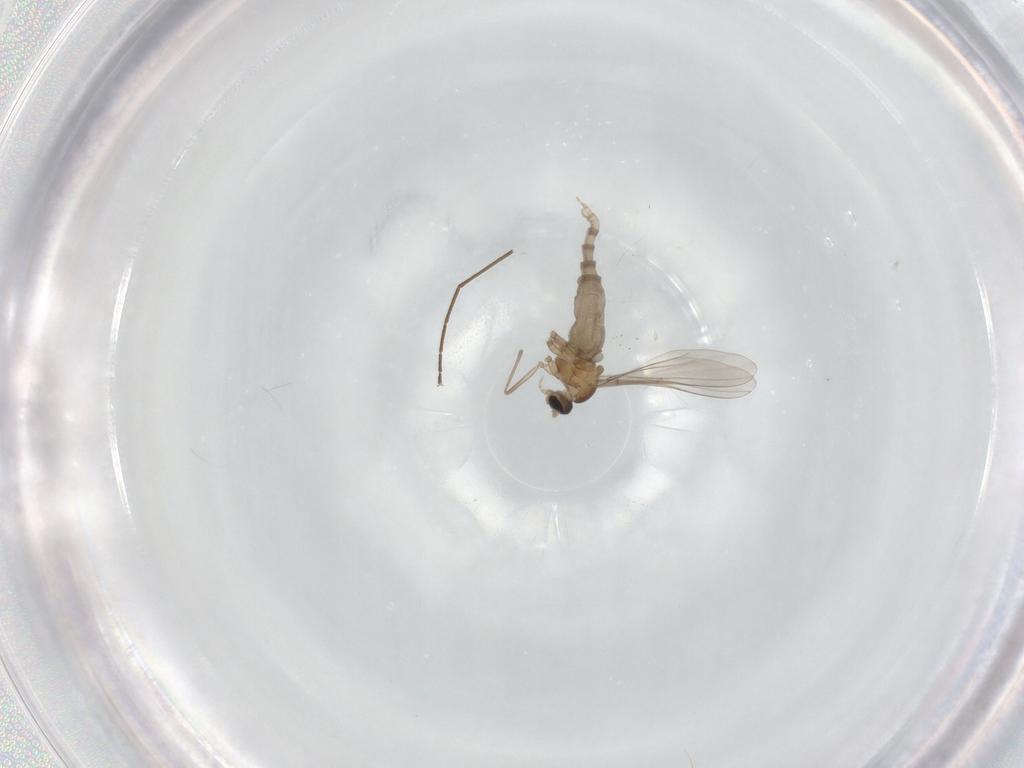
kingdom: Animalia
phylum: Arthropoda
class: Insecta
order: Diptera
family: Cecidomyiidae
